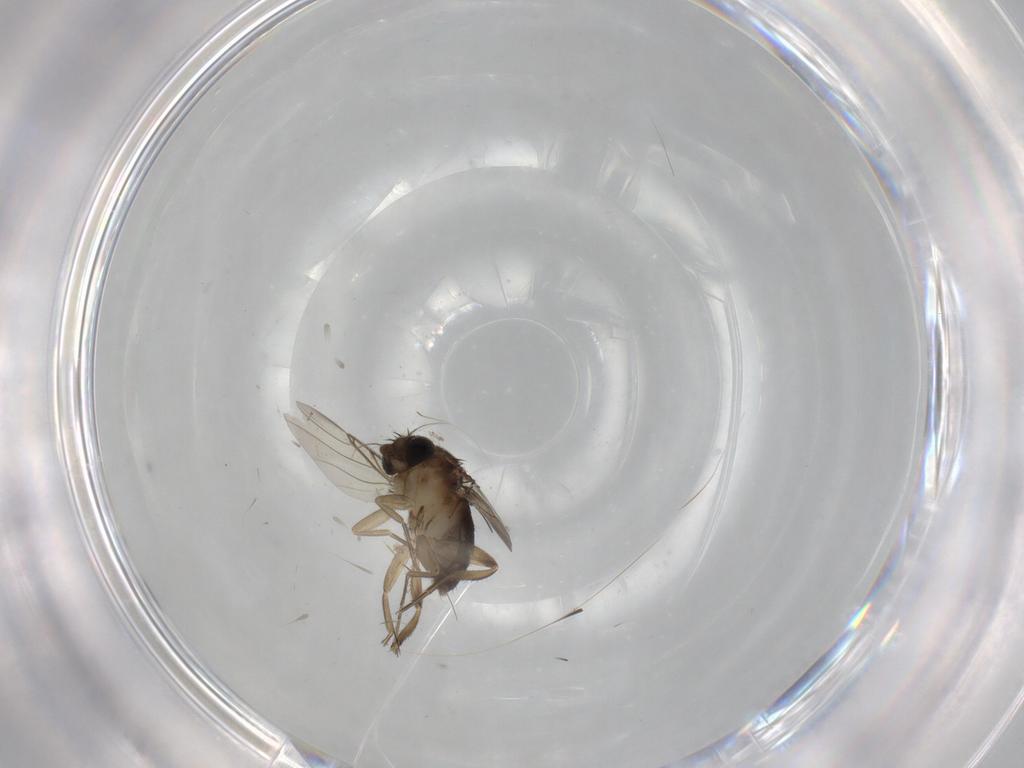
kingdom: Animalia
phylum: Arthropoda
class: Insecta
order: Diptera
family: Phoridae
